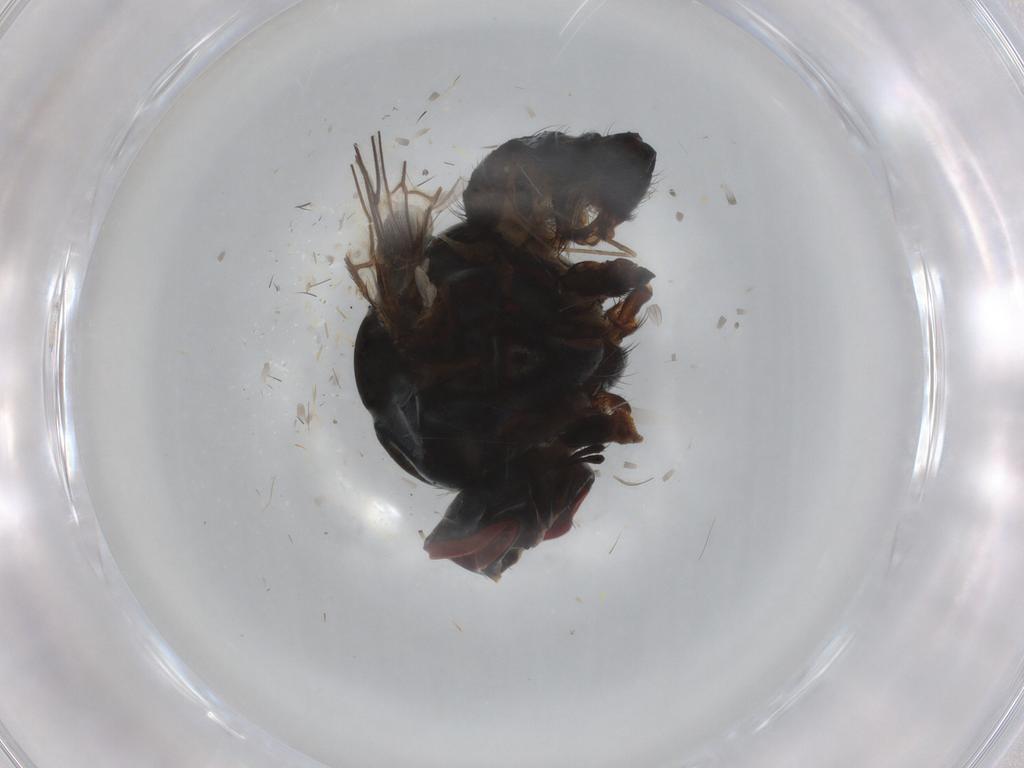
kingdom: Animalia
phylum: Arthropoda
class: Insecta
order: Diptera
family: Chloropidae
